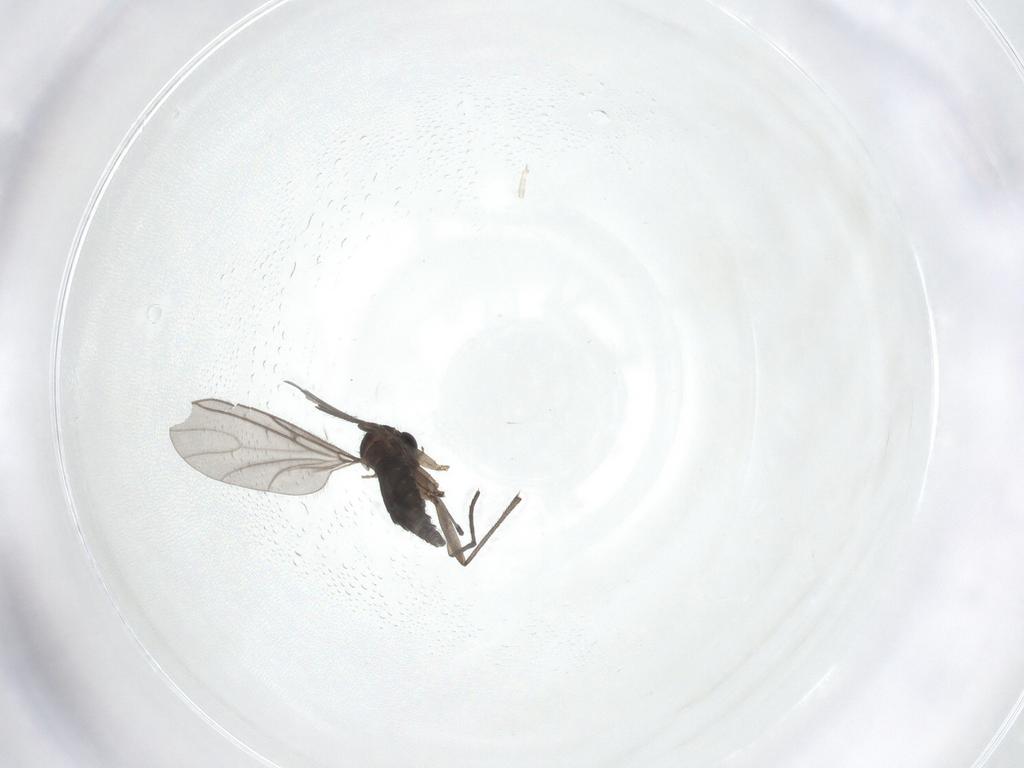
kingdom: Animalia
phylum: Arthropoda
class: Insecta
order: Diptera
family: Sciaridae
